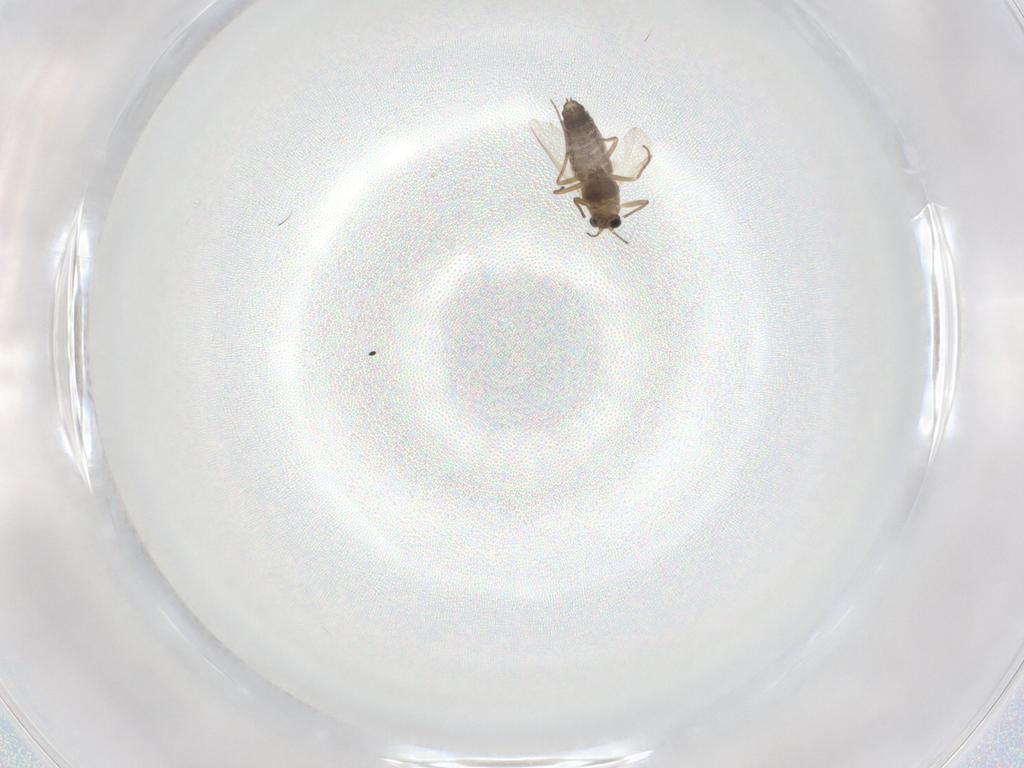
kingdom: Animalia
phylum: Arthropoda
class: Insecta
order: Diptera
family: Chironomidae
